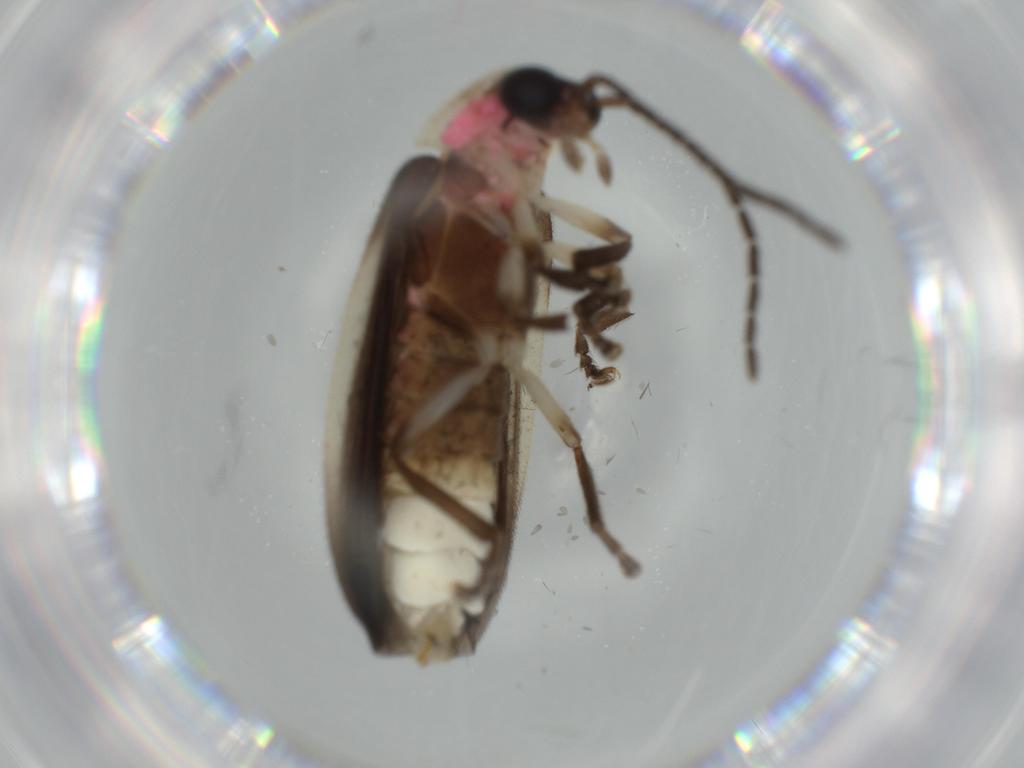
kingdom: Animalia
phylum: Arthropoda
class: Insecta
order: Coleoptera
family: Lampyridae
